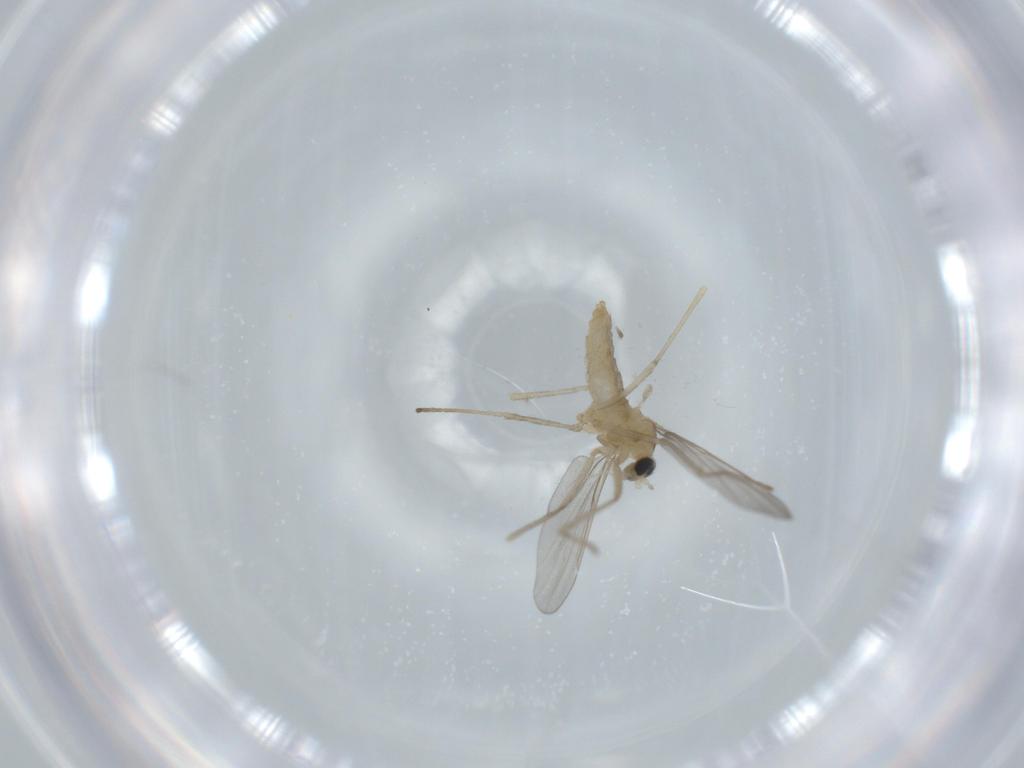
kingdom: Animalia
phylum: Arthropoda
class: Insecta
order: Diptera
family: Cecidomyiidae
